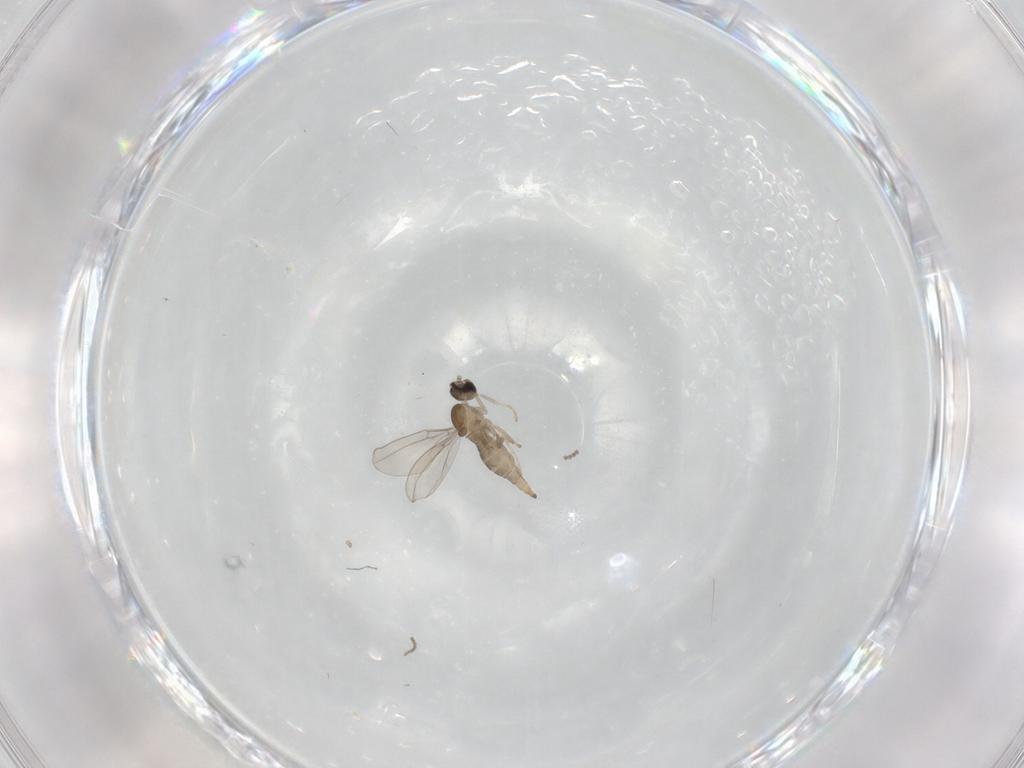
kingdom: Animalia
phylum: Arthropoda
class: Insecta
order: Diptera
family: Cecidomyiidae
